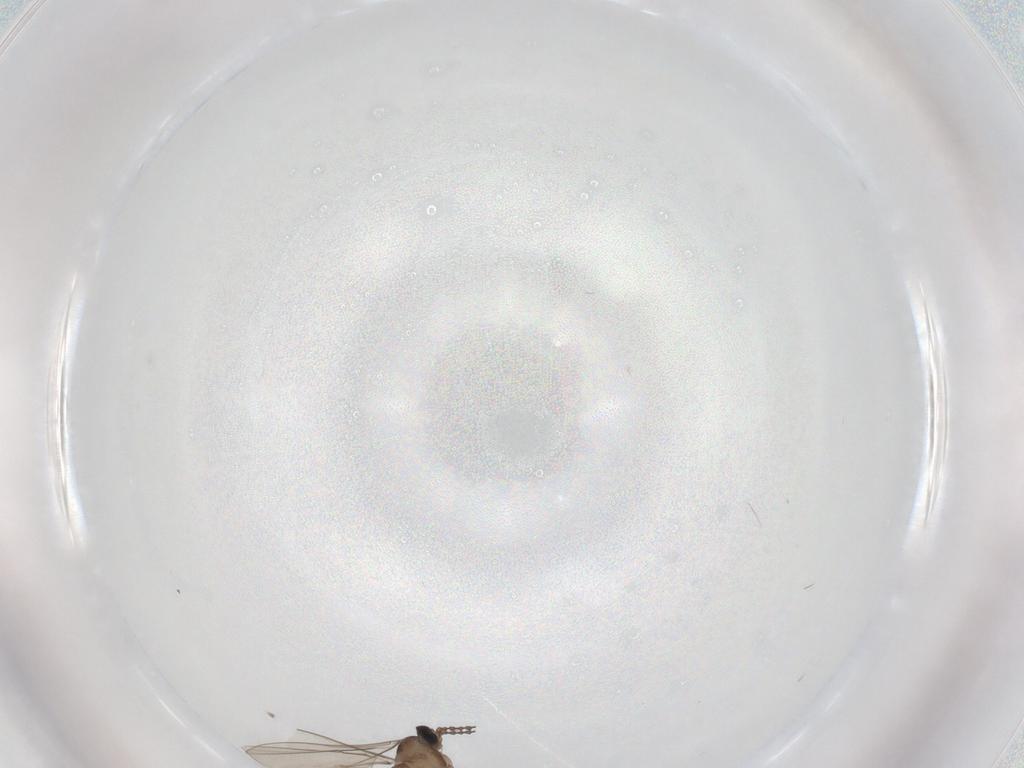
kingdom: Animalia
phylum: Arthropoda
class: Insecta
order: Diptera
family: Cecidomyiidae
